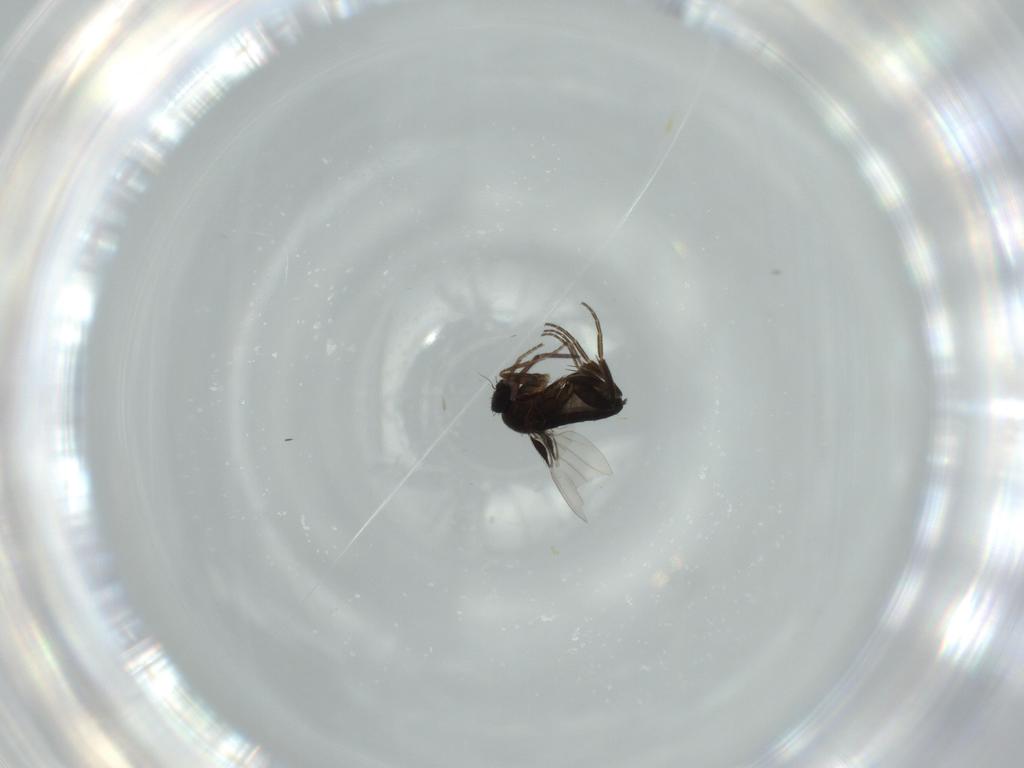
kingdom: Animalia
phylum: Arthropoda
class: Insecta
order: Diptera
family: Phoridae
